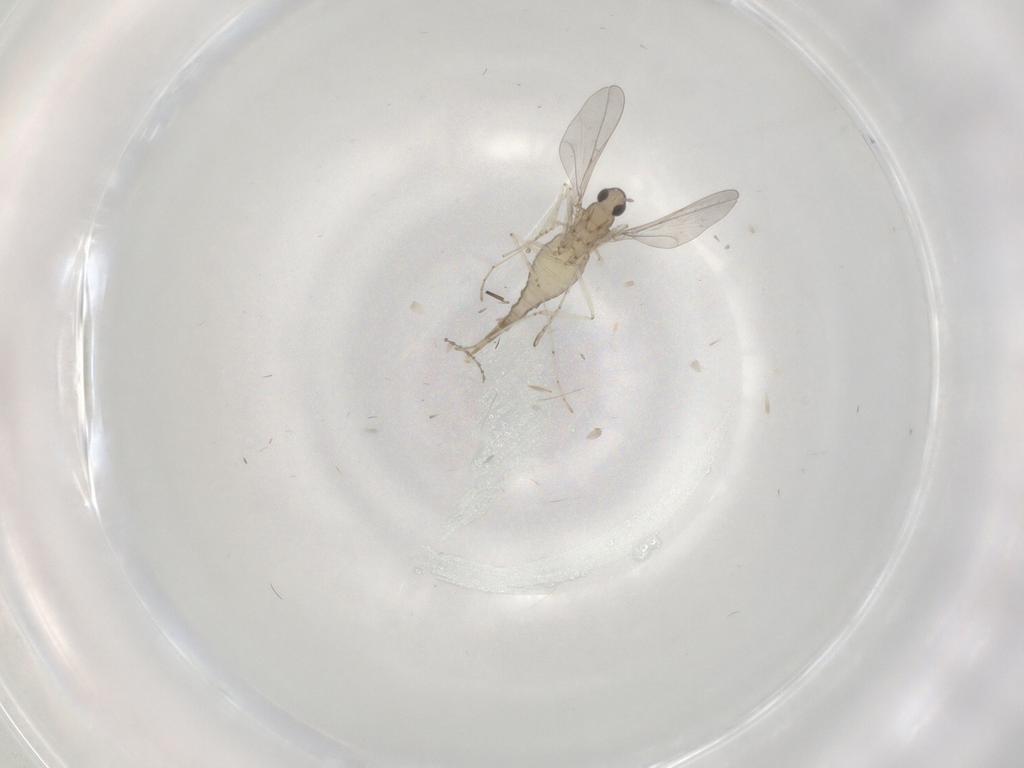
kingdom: Animalia
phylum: Arthropoda
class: Insecta
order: Diptera
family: Cecidomyiidae
